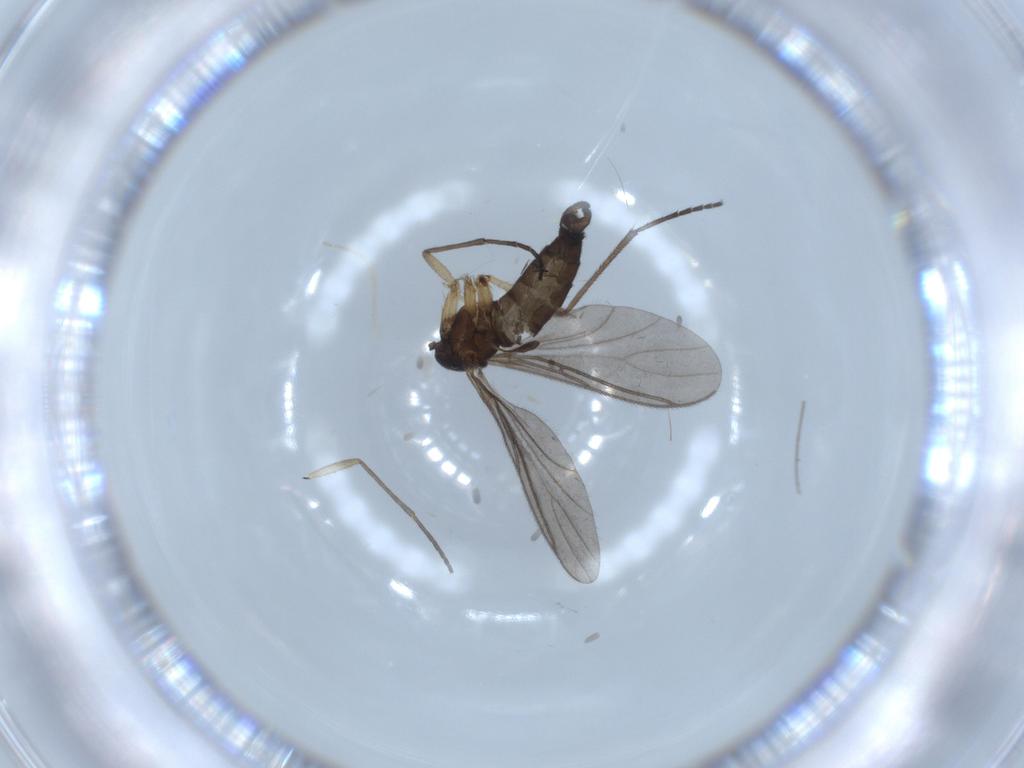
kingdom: Animalia
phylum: Arthropoda
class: Insecta
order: Diptera
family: Sciaridae
